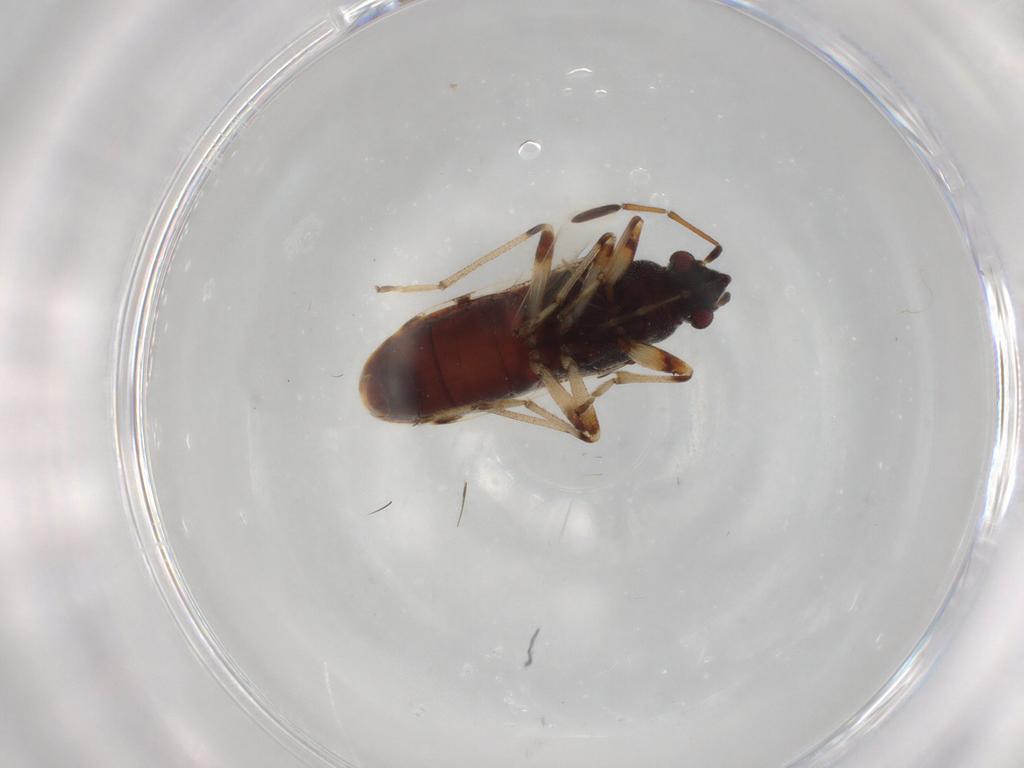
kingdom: Animalia
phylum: Arthropoda
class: Insecta
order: Hemiptera
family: Rhyparochromidae
